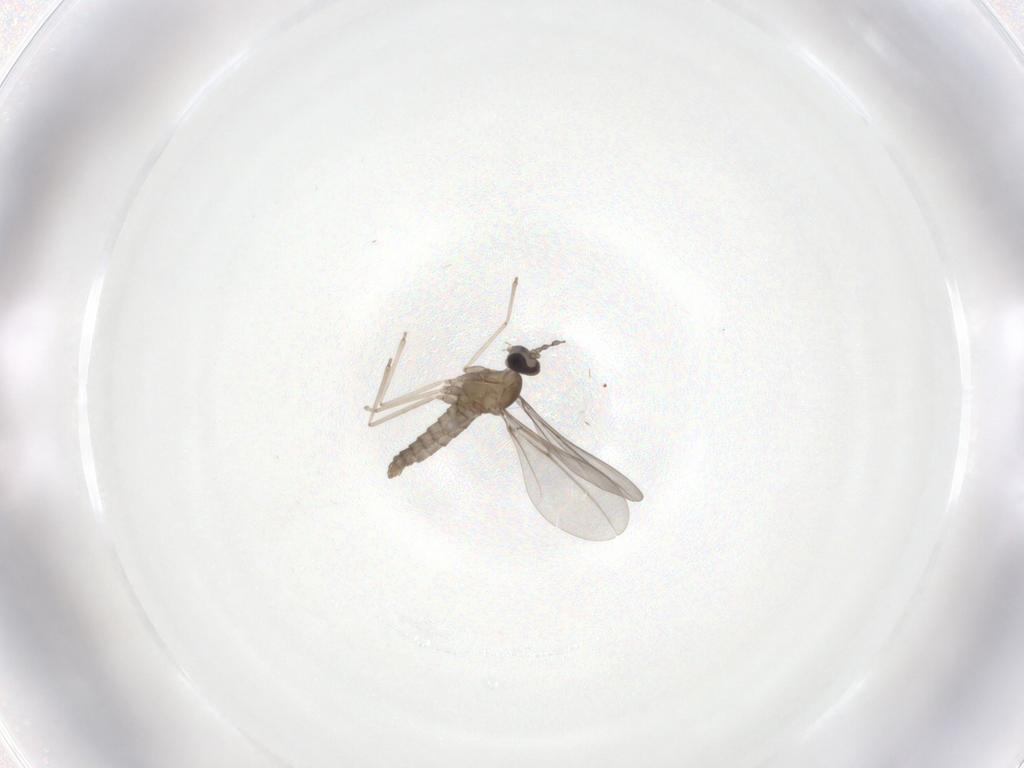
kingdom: Animalia
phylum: Arthropoda
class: Insecta
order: Diptera
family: Cecidomyiidae
